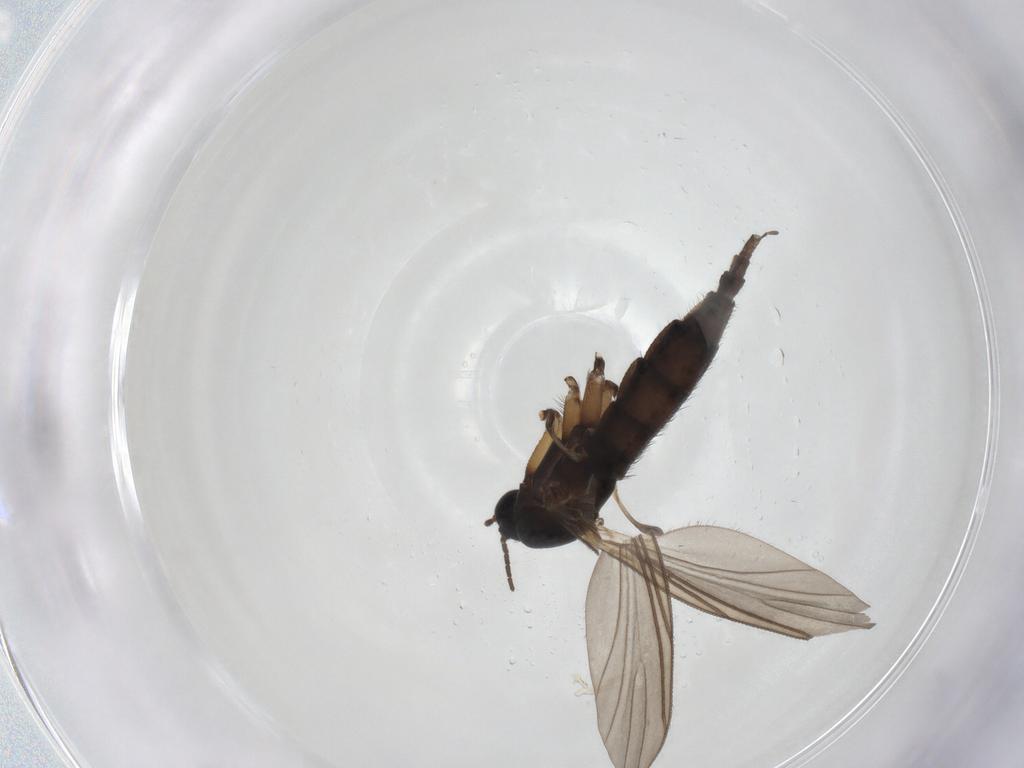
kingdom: Animalia
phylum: Arthropoda
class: Insecta
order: Diptera
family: Sciaridae
